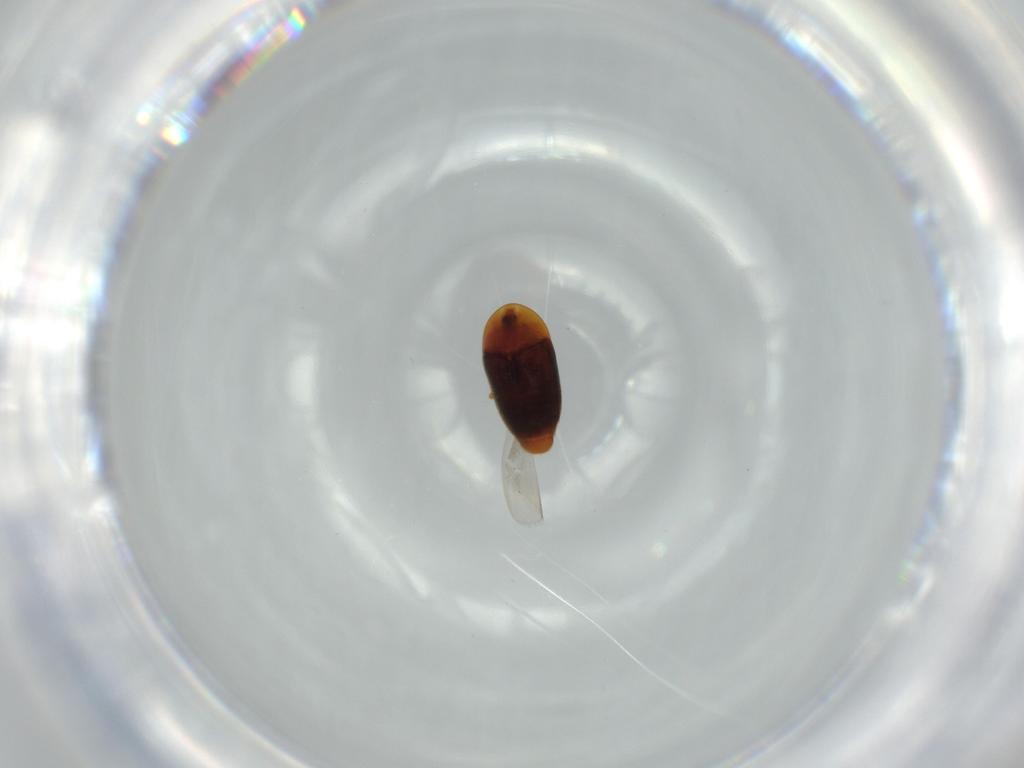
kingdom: Animalia
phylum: Arthropoda
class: Insecta
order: Coleoptera
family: Corylophidae
